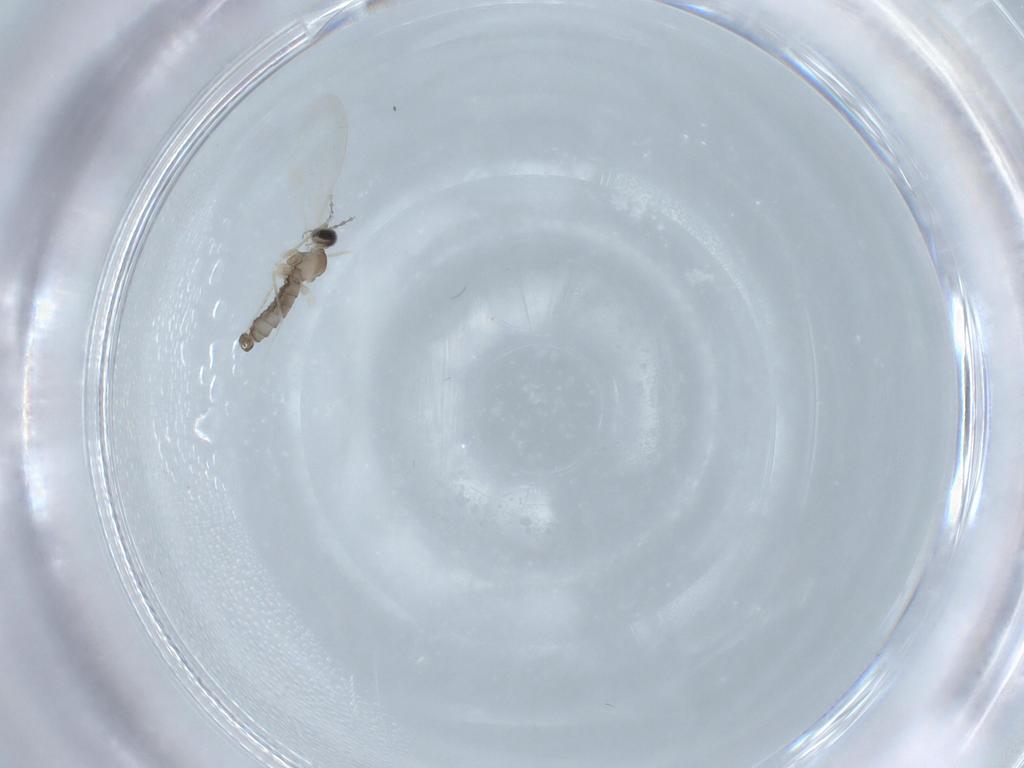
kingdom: Animalia
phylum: Arthropoda
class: Insecta
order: Diptera
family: Cecidomyiidae
